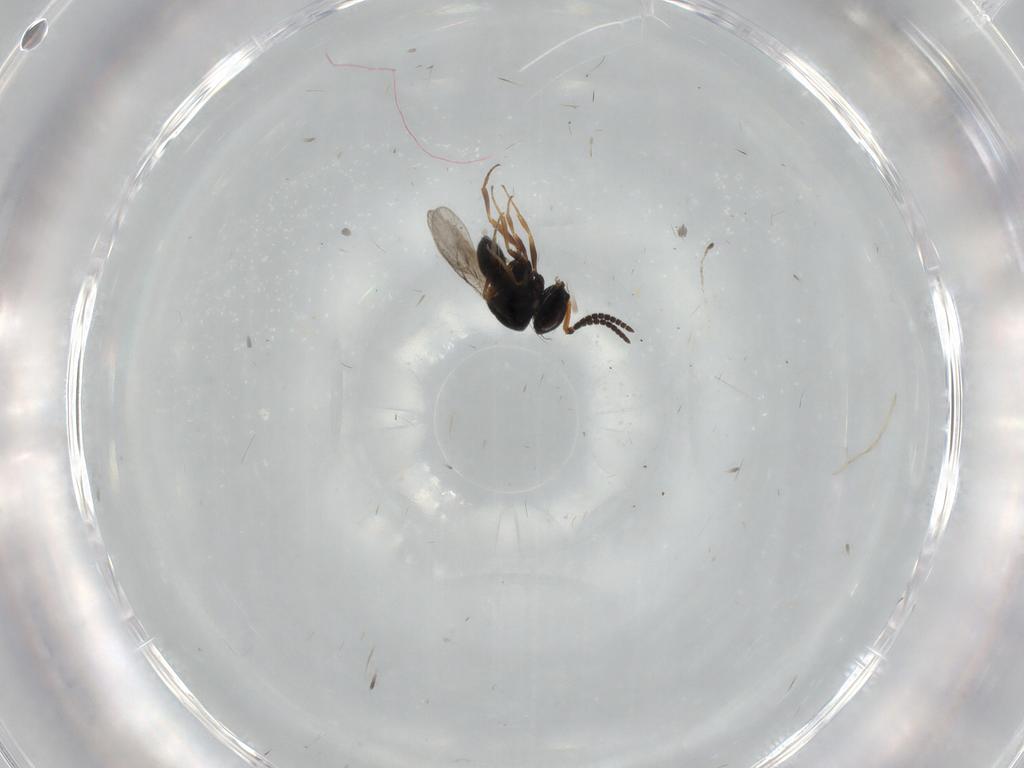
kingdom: Animalia
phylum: Arthropoda
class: Insecta
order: Hymenoptera
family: Scelionidae
